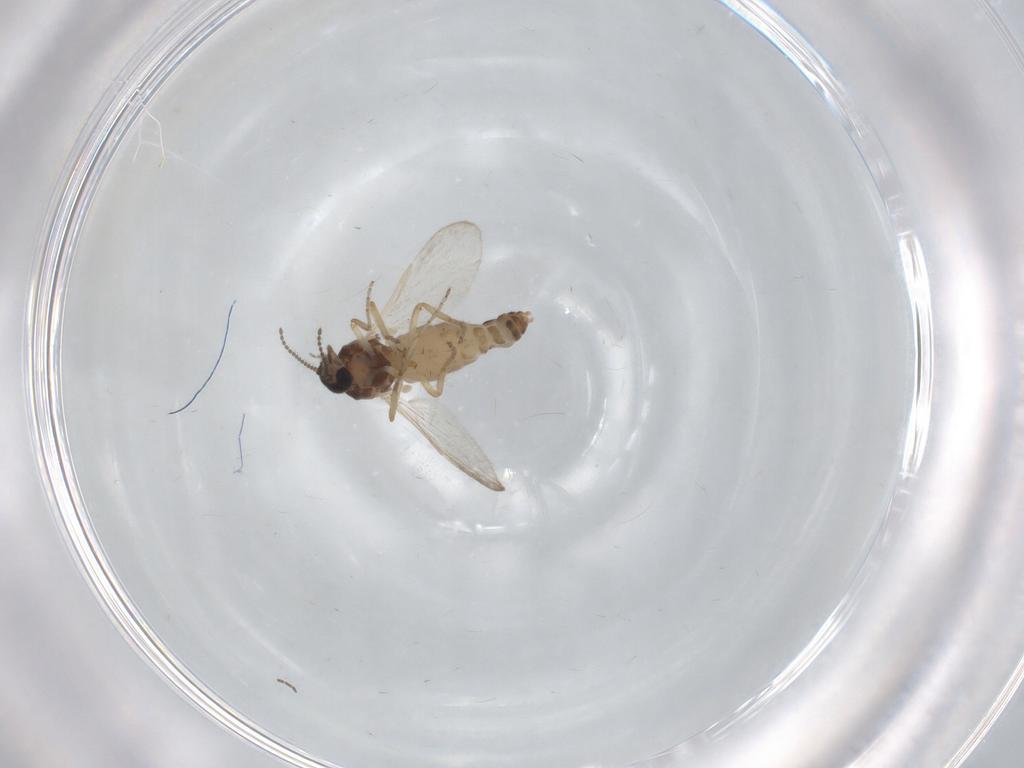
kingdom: Animalia
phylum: Arthropoda
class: Insecta
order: Diptera
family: Ceratopogonidae
